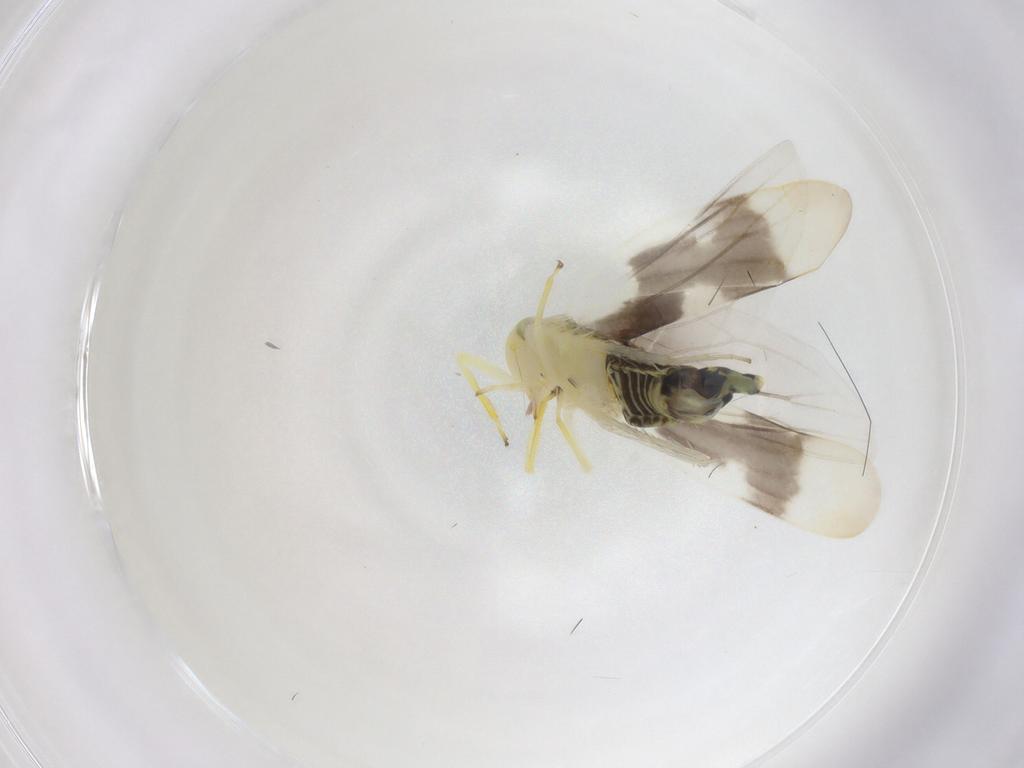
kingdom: Animalia
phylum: Arthropoda
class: Insecta
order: Hemiptera
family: Cicadellidae
